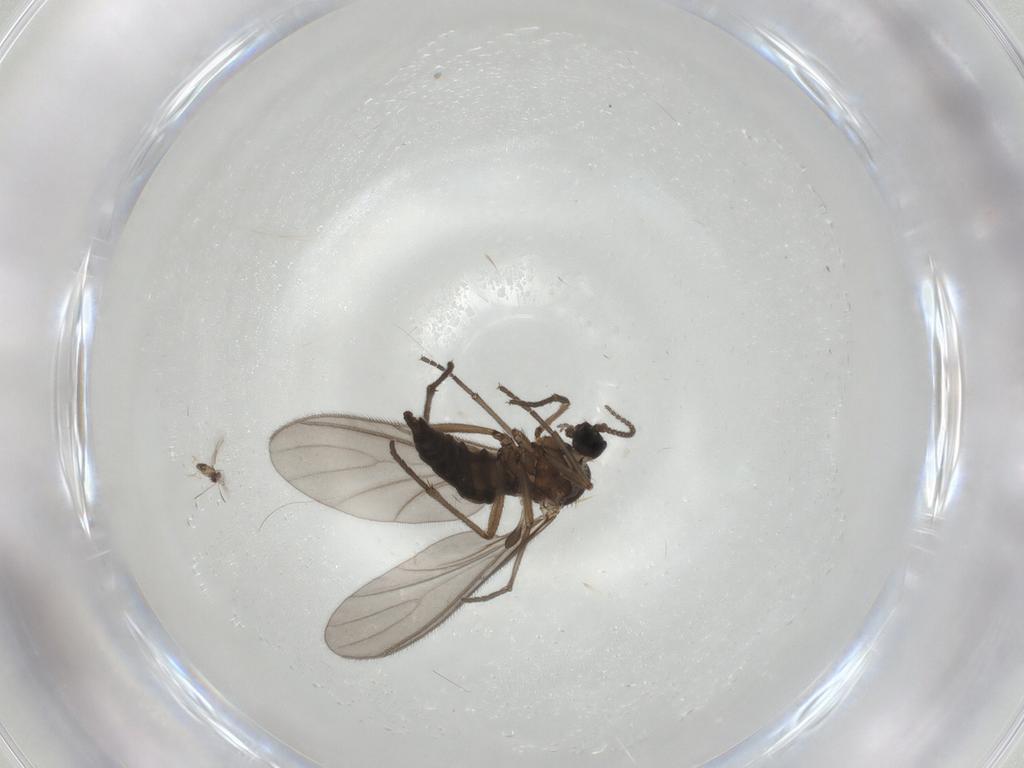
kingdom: Animalia
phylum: Arthropoda
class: Insecta
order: Diptera
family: Sciaridae
